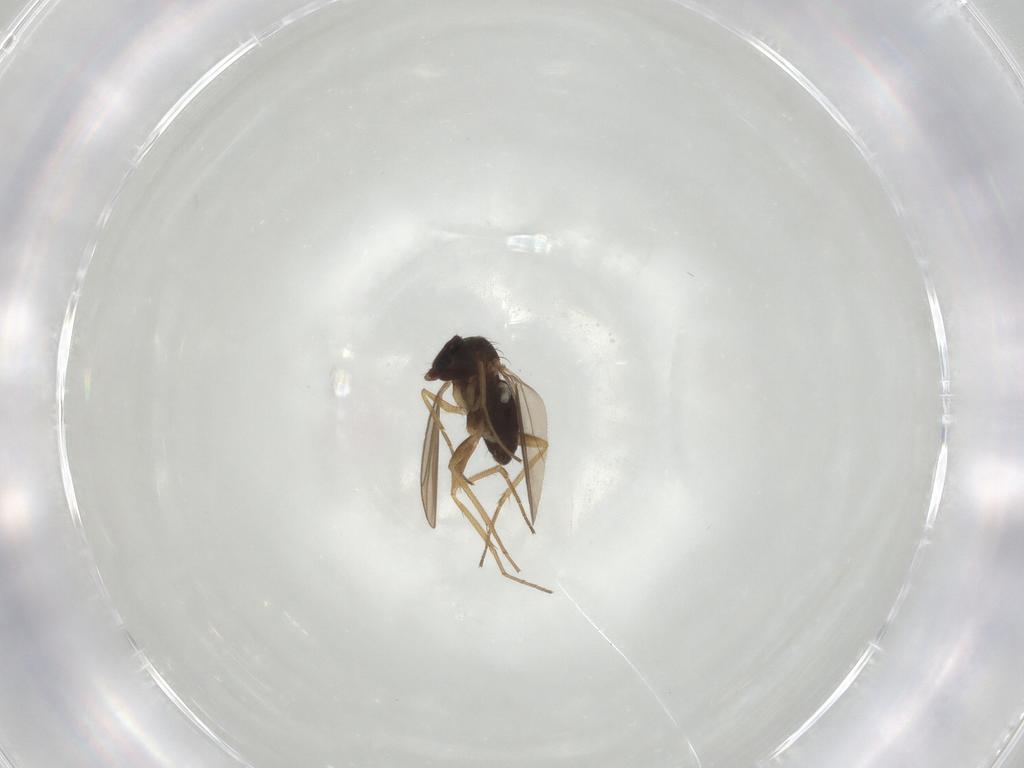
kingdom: Animalia
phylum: Arthropoda
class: Insecta
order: Diptera
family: Dolichopodidae
